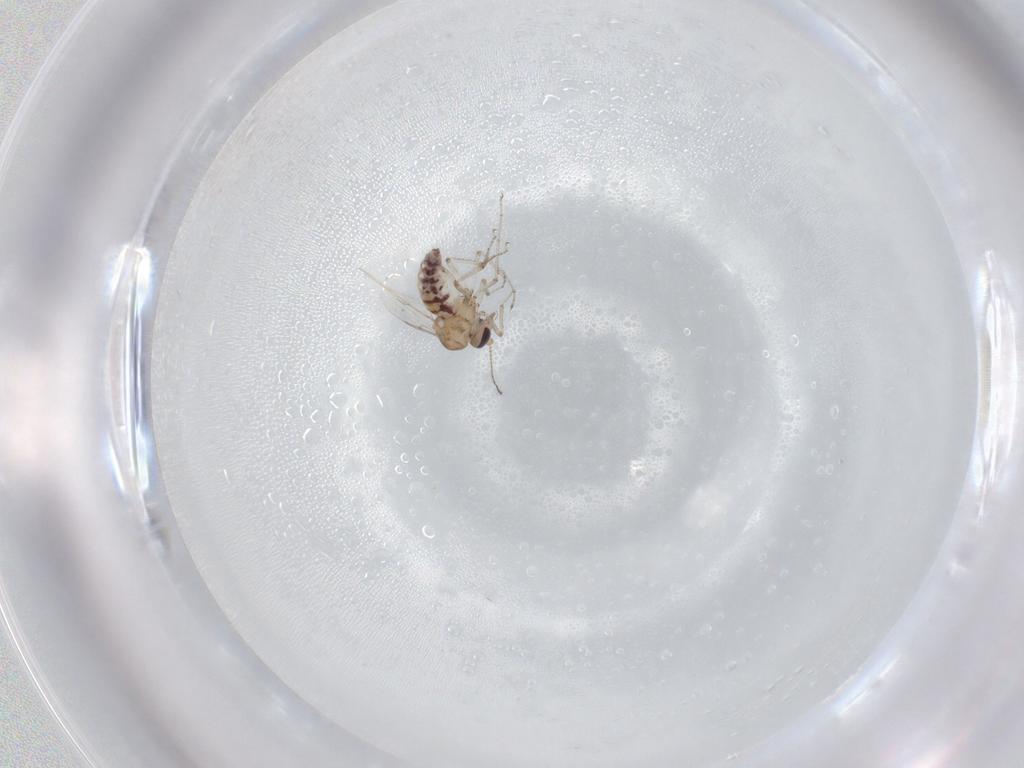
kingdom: Animalia
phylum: Arthropoda
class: Insecta
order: Diptera
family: Ceratopogonidae
